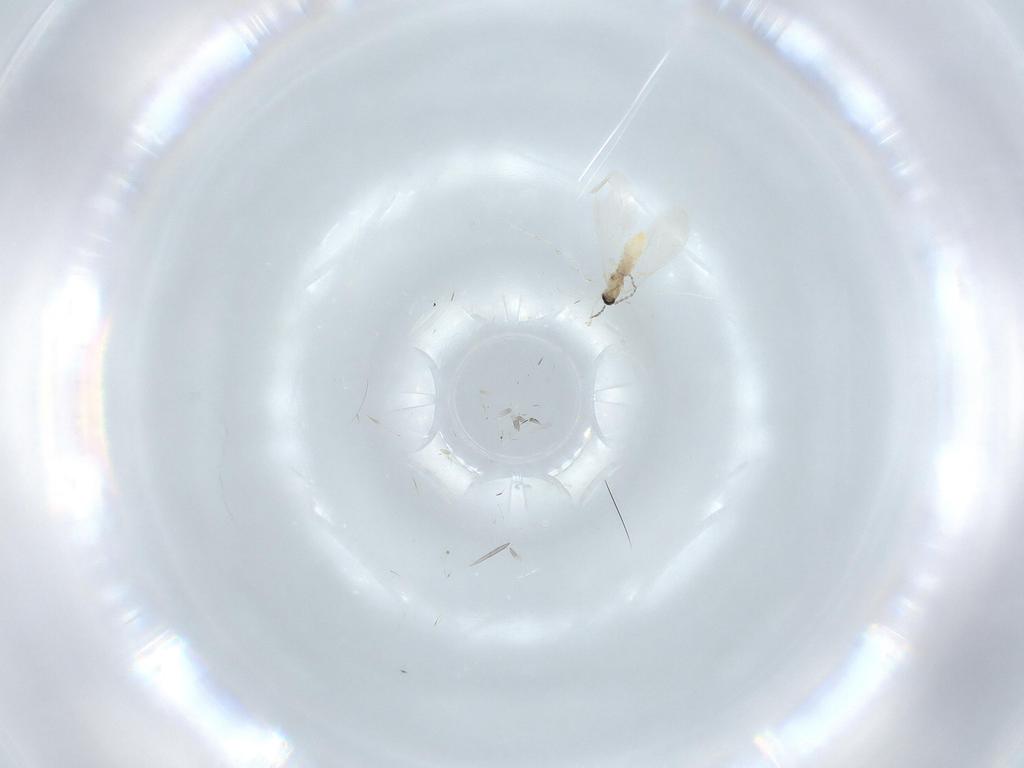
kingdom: Animalia
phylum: Arthropoda
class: Insecta
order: Diptera
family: Cecidomyiidae
